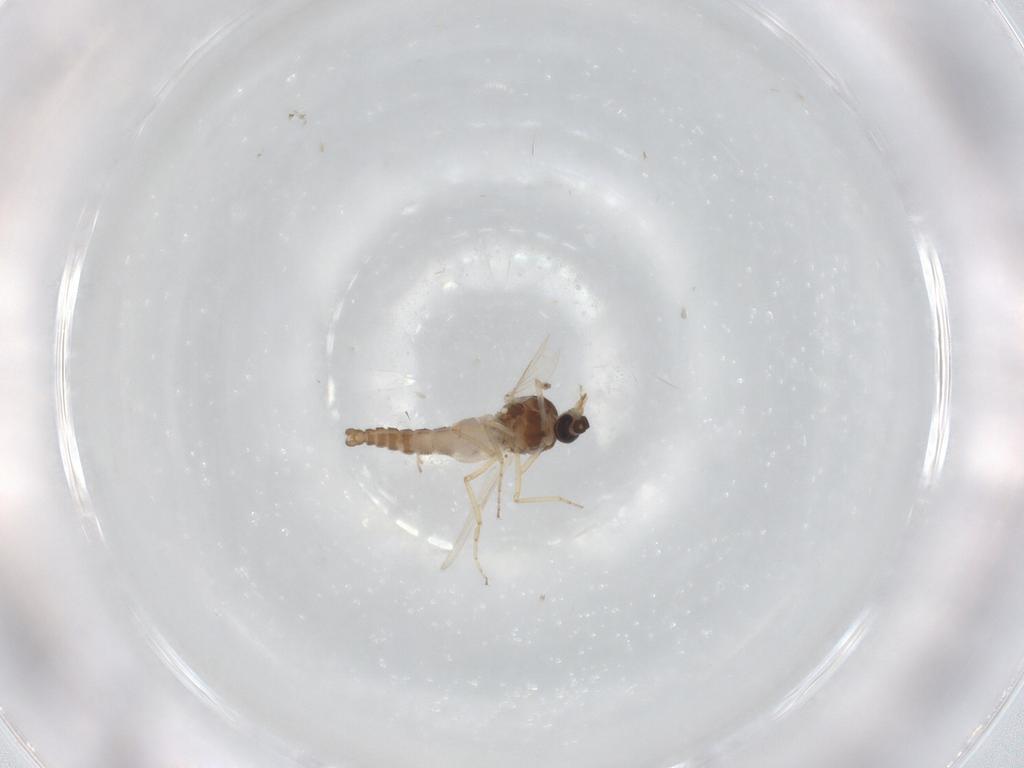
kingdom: Animalia
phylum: Arthropoda
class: Insecta
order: Diptera
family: Ceratopogonidae
